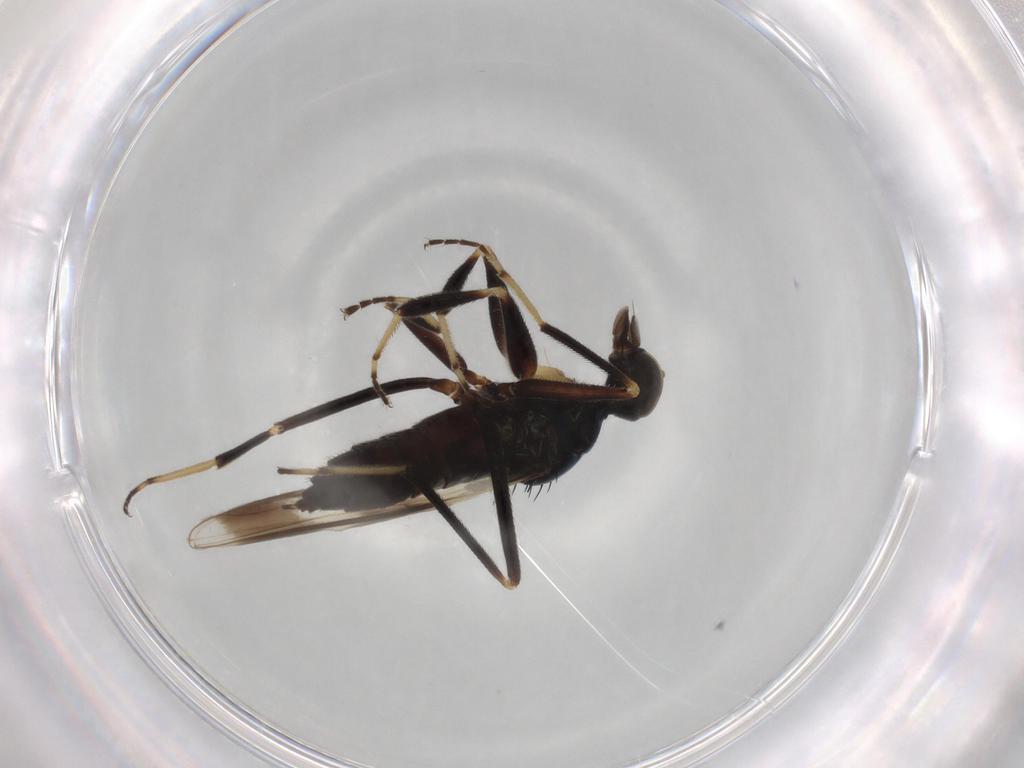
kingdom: Animalia
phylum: Arthropoda
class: Insecta
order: Diptera
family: Hybotidae
